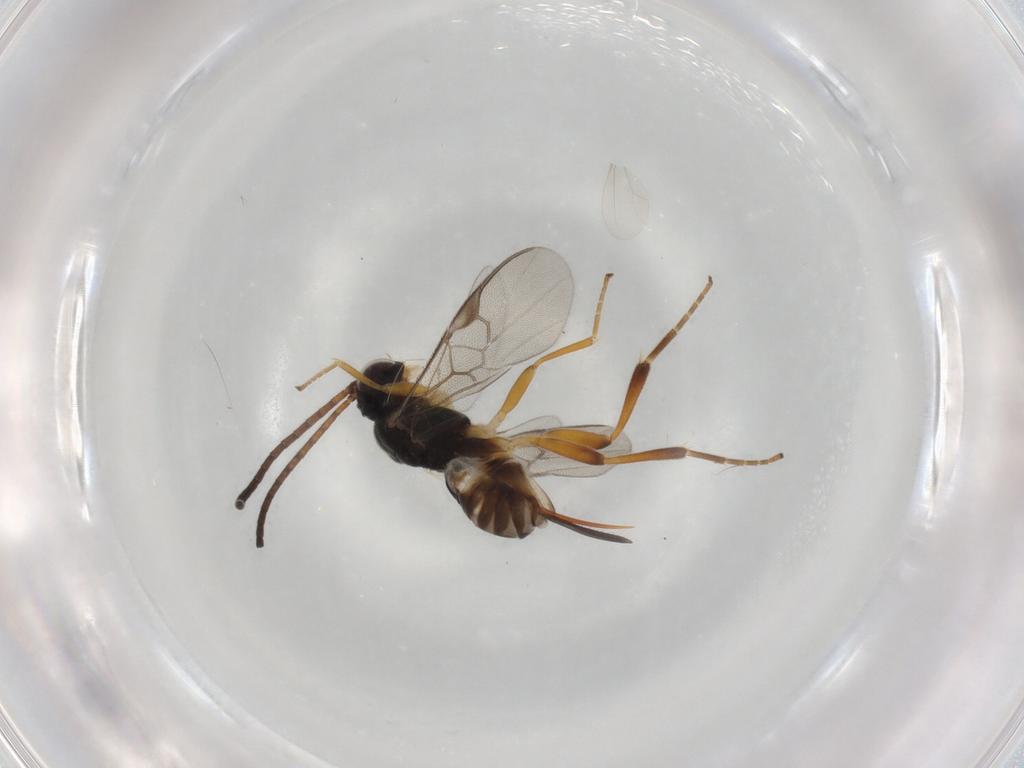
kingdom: Animalia
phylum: Arthropoda
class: Insecta
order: Hymenoptera
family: Braconidae
